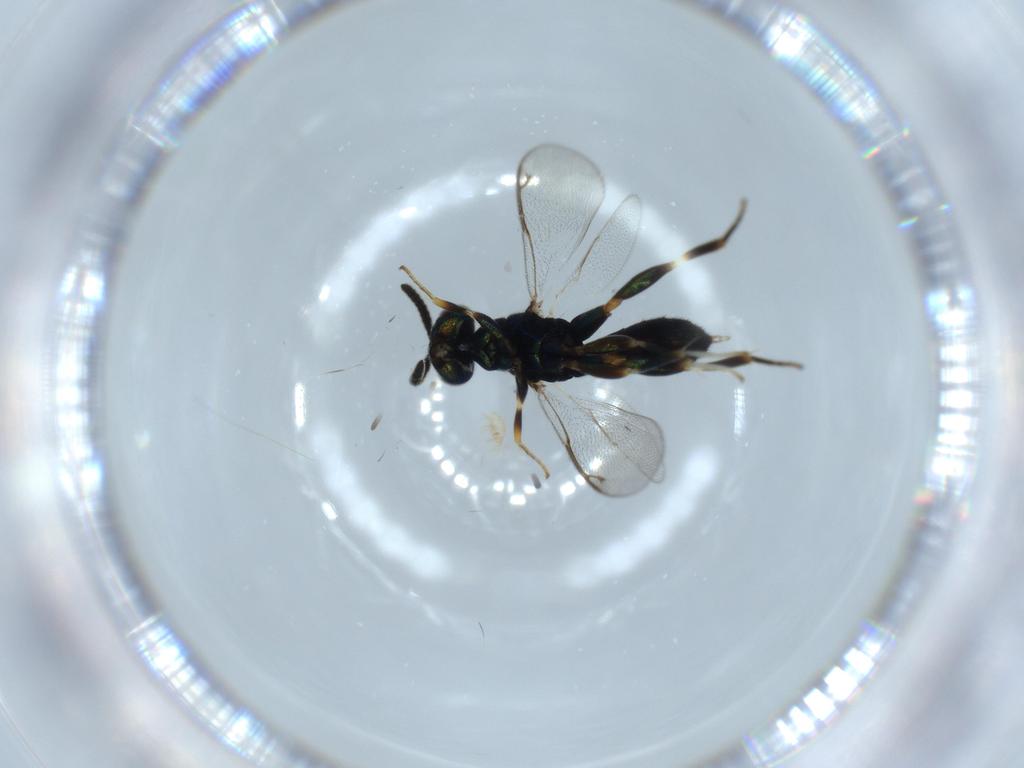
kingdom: Animalia
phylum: Arthropoda
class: Insecta
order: Hymenoptera
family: Cleonyminae
